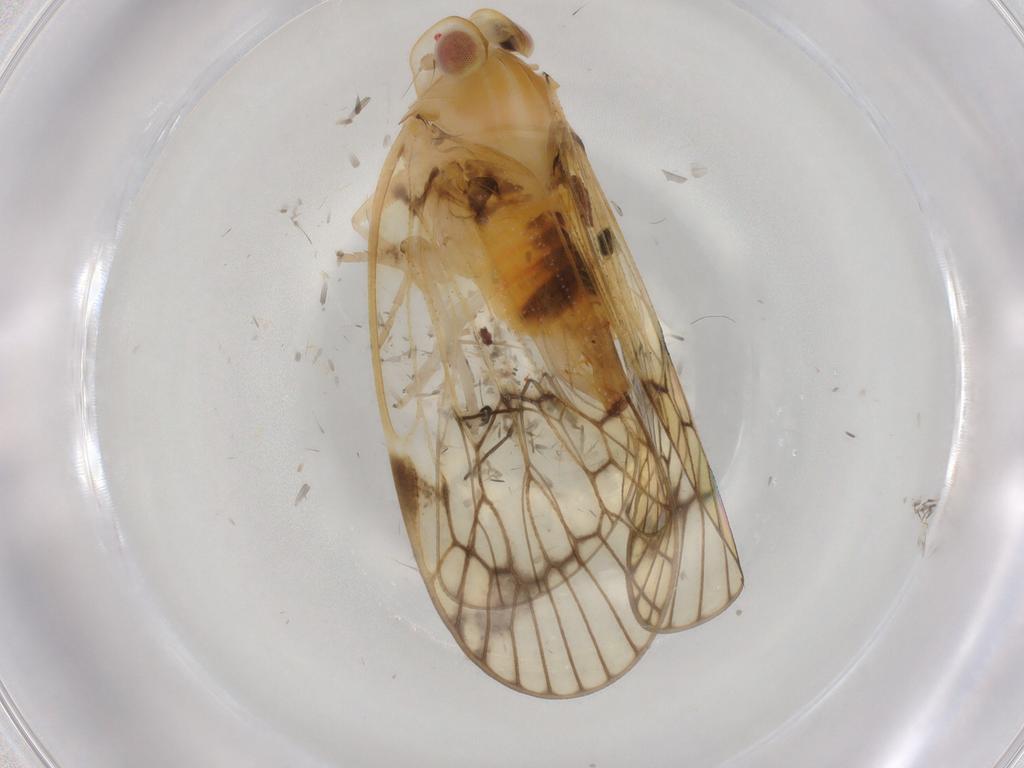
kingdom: Animalia
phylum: Arthropoda
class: Insecta
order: Hemiptera
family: Cixiidae
